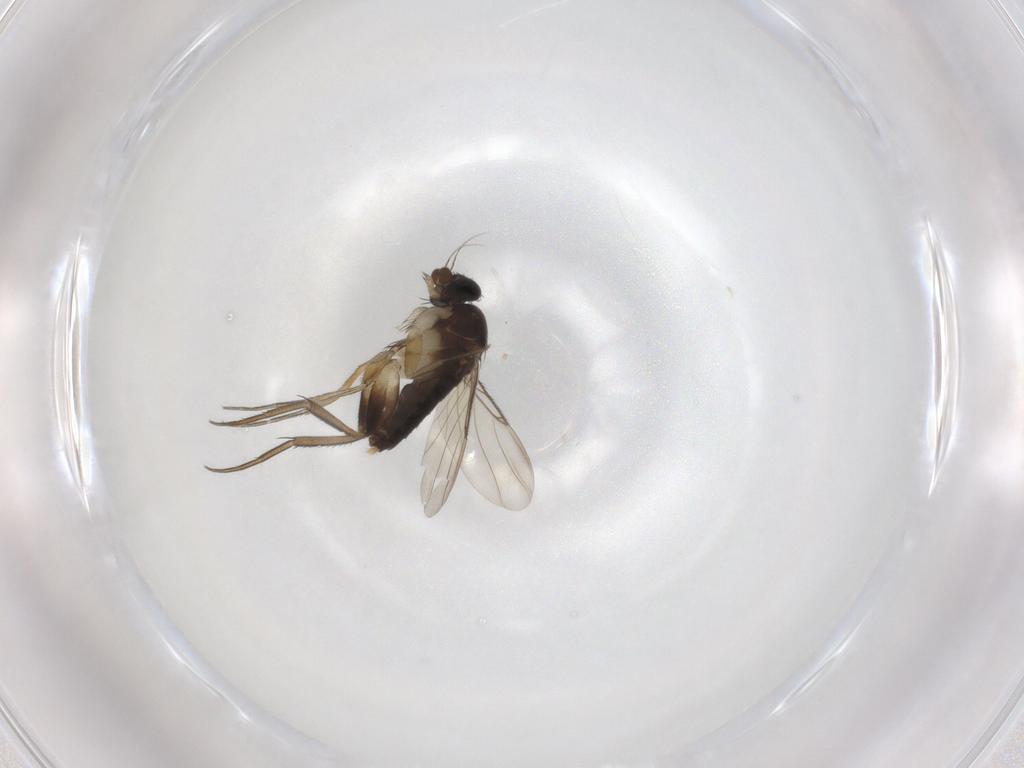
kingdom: Animalia
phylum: Arthropoda
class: Insecta
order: Diptera
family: Phoridae
